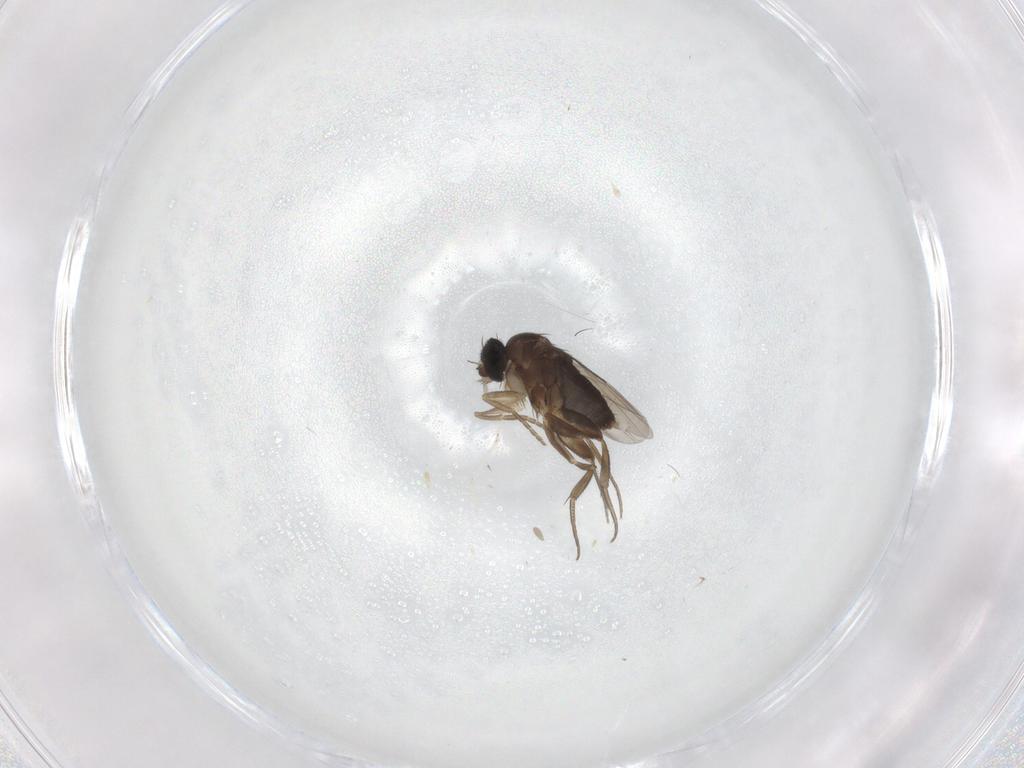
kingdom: Animalia
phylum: Arthropoda
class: Insecta
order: Diptera
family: Phoridae
